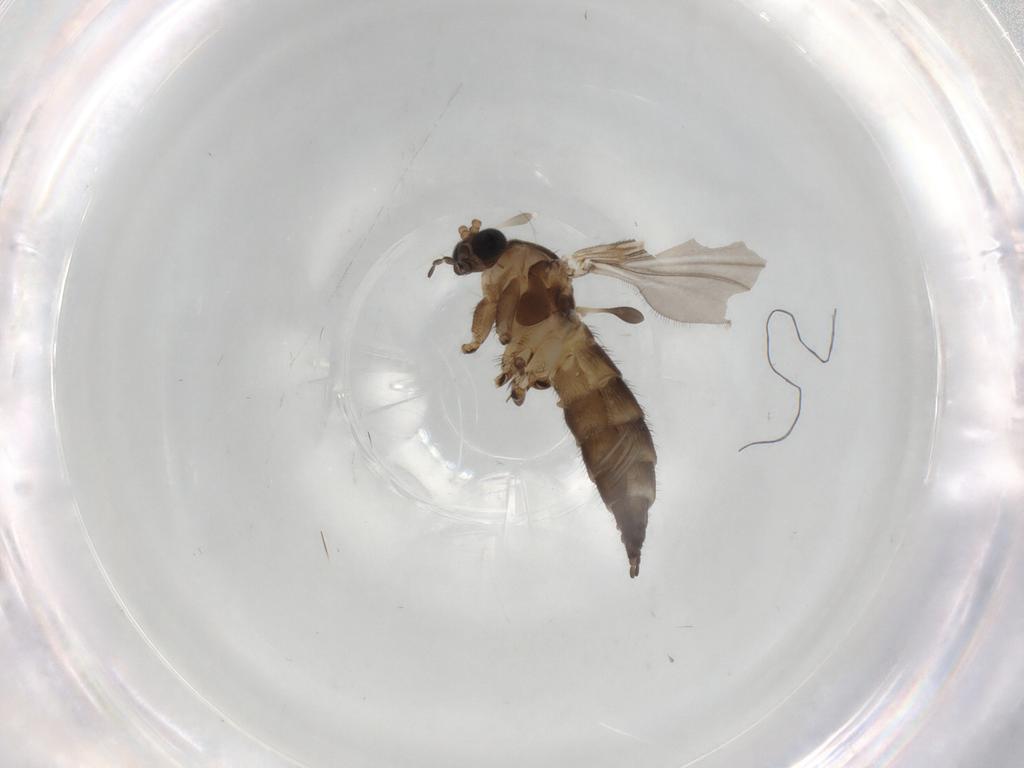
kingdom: Animalia
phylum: Arthropoda
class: Insecta
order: Diptera
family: Sciaridae
